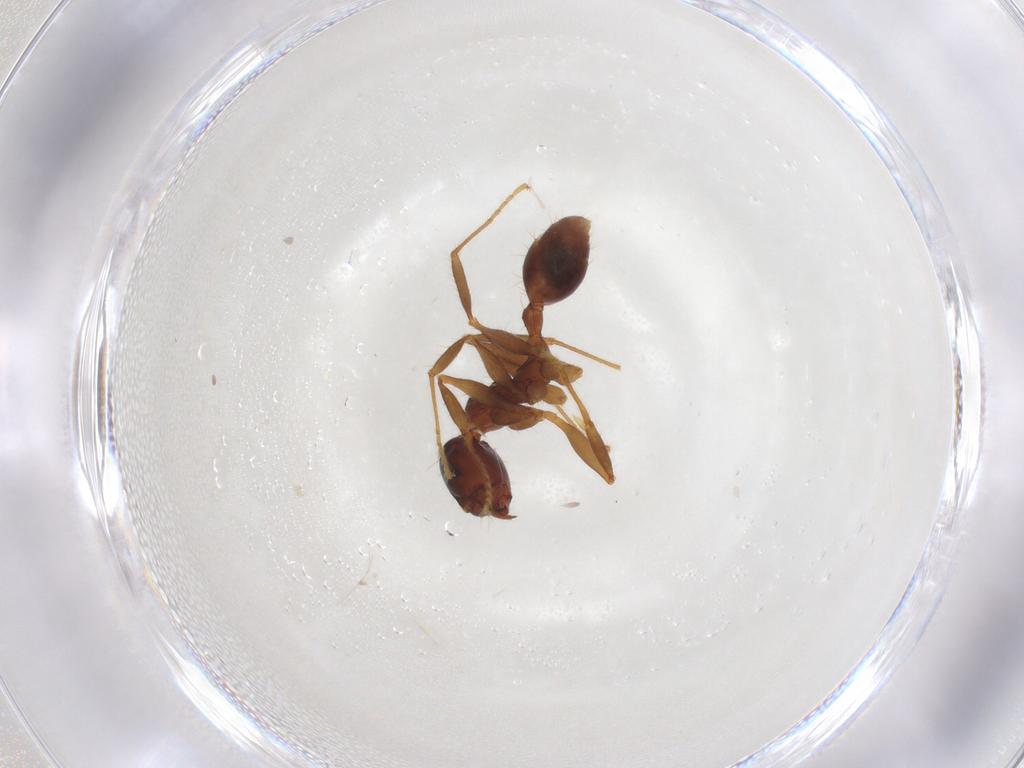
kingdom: Animalia
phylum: Arthropoda
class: Insecta
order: Hymenoptera
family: Formicidae
